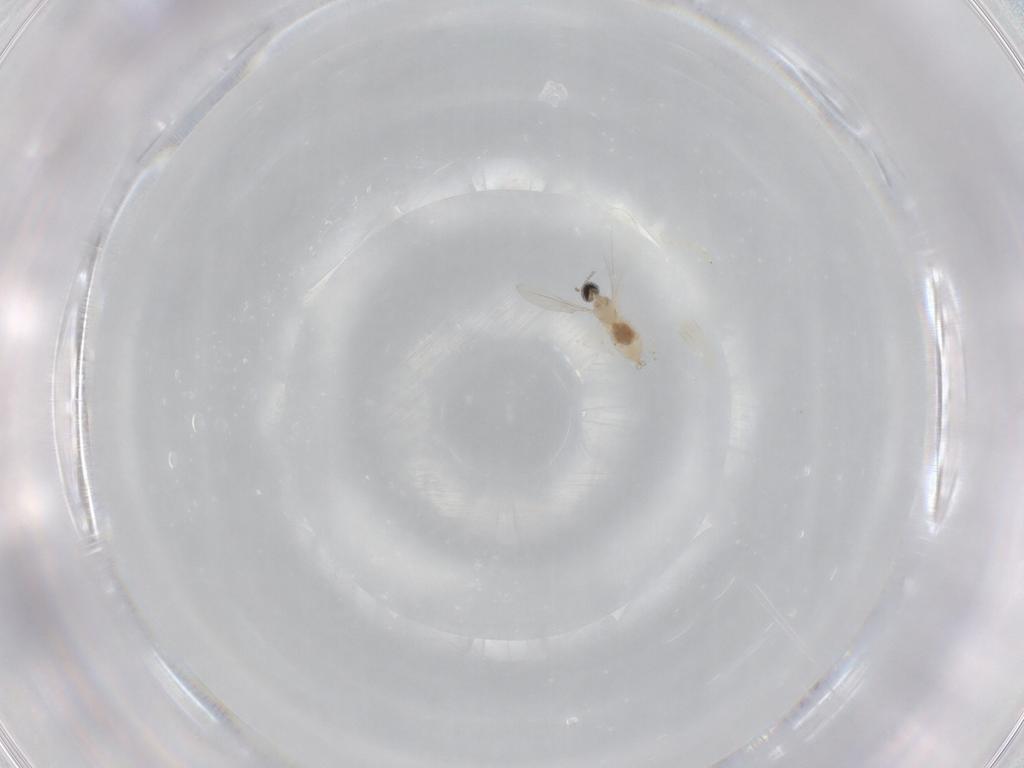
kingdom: Animalia
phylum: Arthropoda
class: Insecta
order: Diptera
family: Cecidomyiidae
